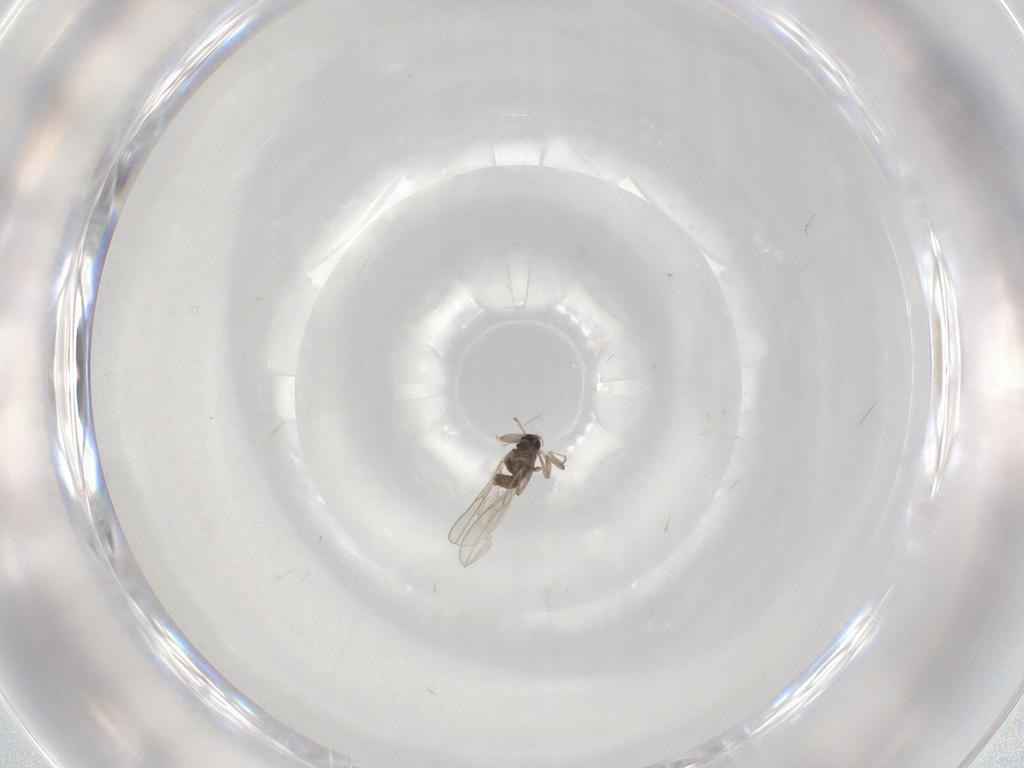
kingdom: Animalia
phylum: Arthropoda
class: Insecta
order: Diptera
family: Cecidomyiidae
